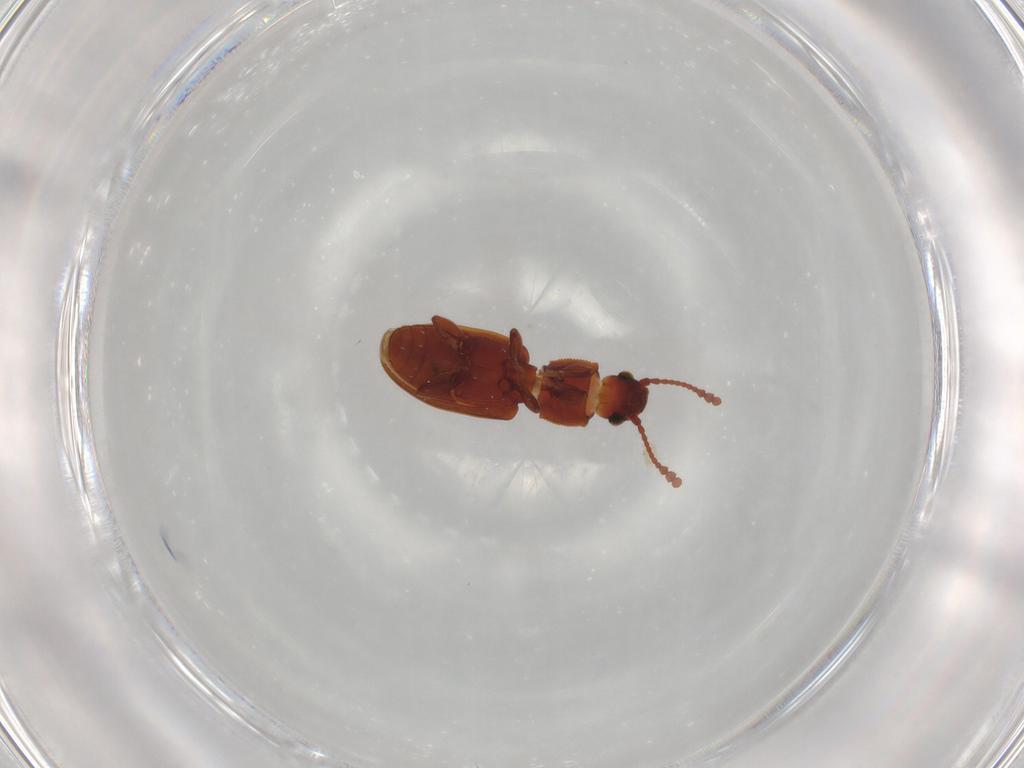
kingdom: Animalia
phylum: Arthropoda
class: Insecta
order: Coleoptera
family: Silvanidae
